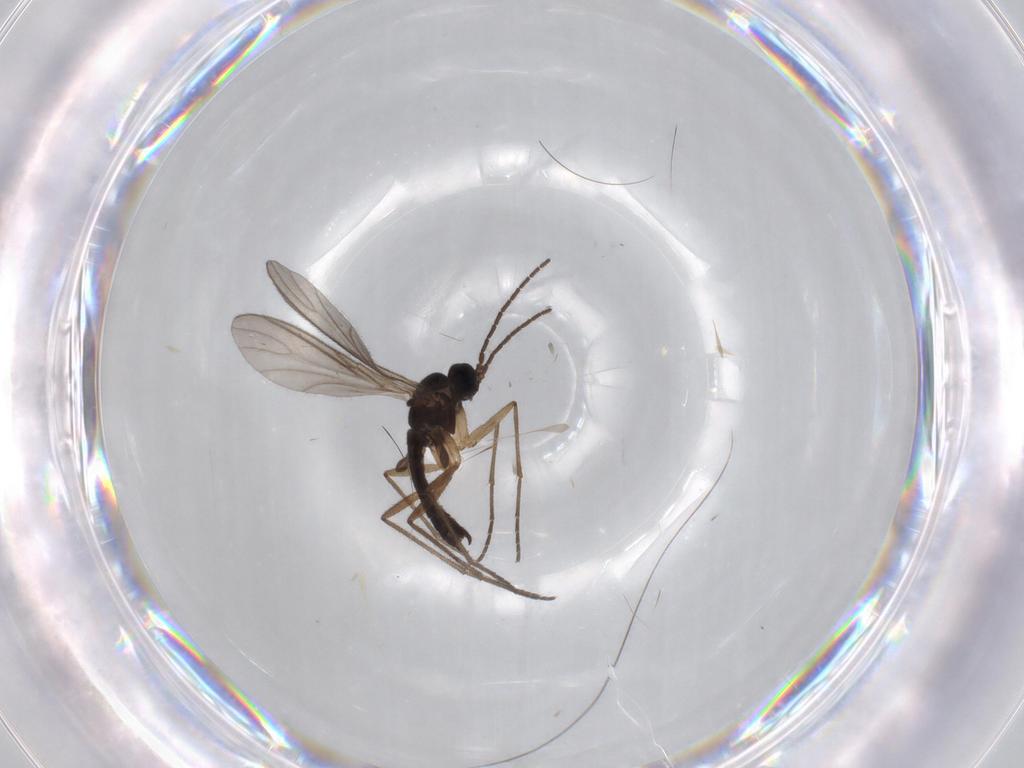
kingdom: Animalia
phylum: Arthropoda
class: Insecta
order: Diptera
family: Sciaridae
